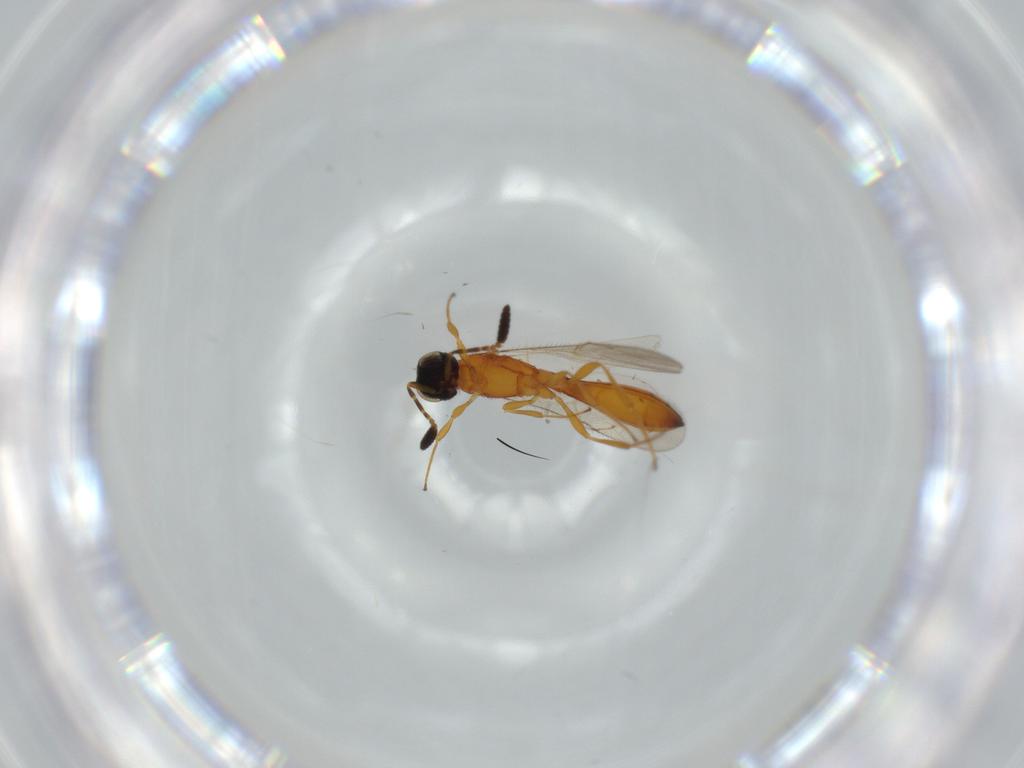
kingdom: Animalia
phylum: Arthropoda
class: Insecta
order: Hymenoptera
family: Scelionidae
